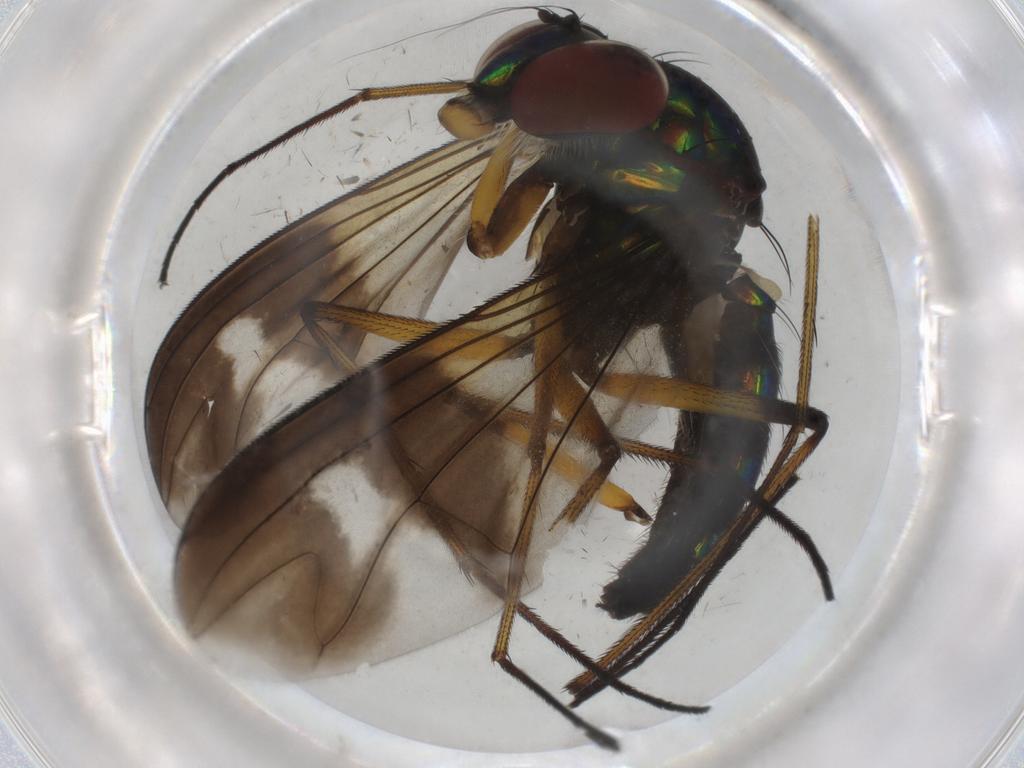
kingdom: Animalia
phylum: Arthropoda
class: Insecta
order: Diptera
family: Dolichopodidae
